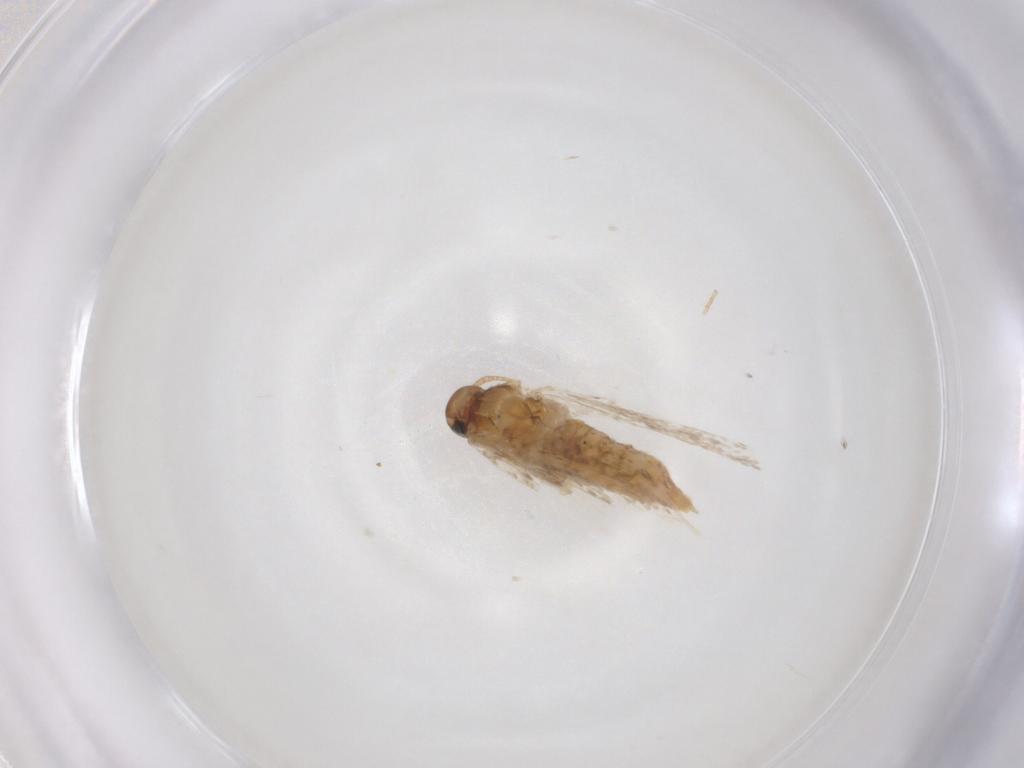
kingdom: Animalia
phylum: Arthropoda
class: Insecta
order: Lepidoptera
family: Gelechiidae
